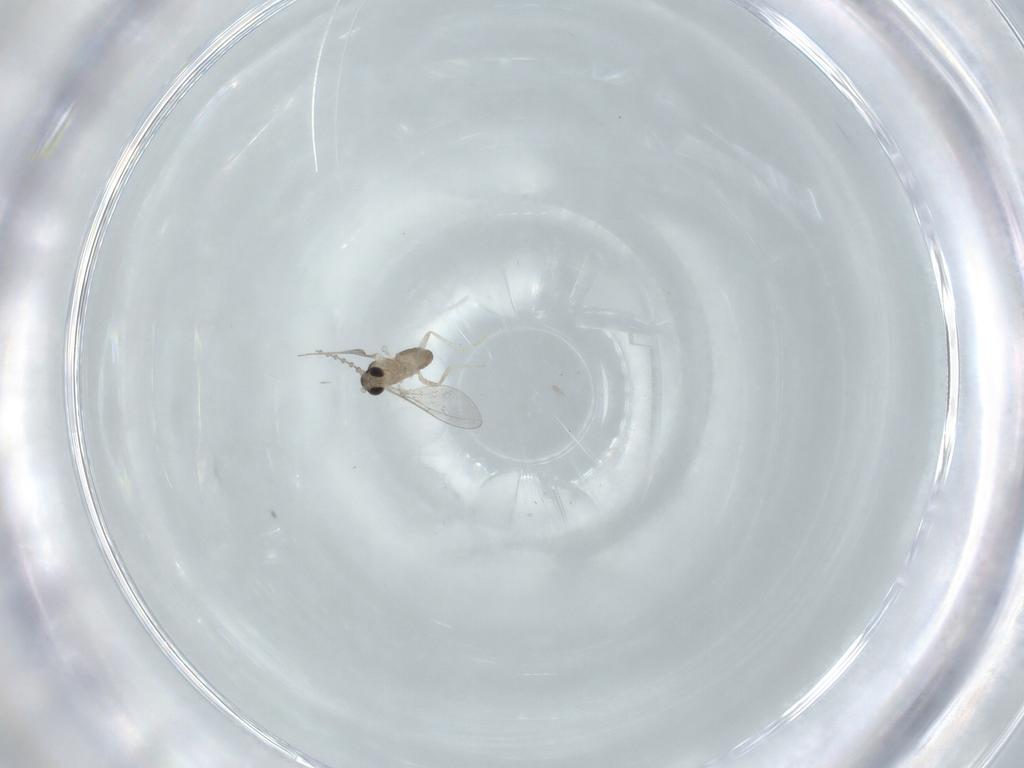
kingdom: Animalia
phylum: Arthropoda
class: Insecta
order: Diptera
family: Cecidomyiidae
